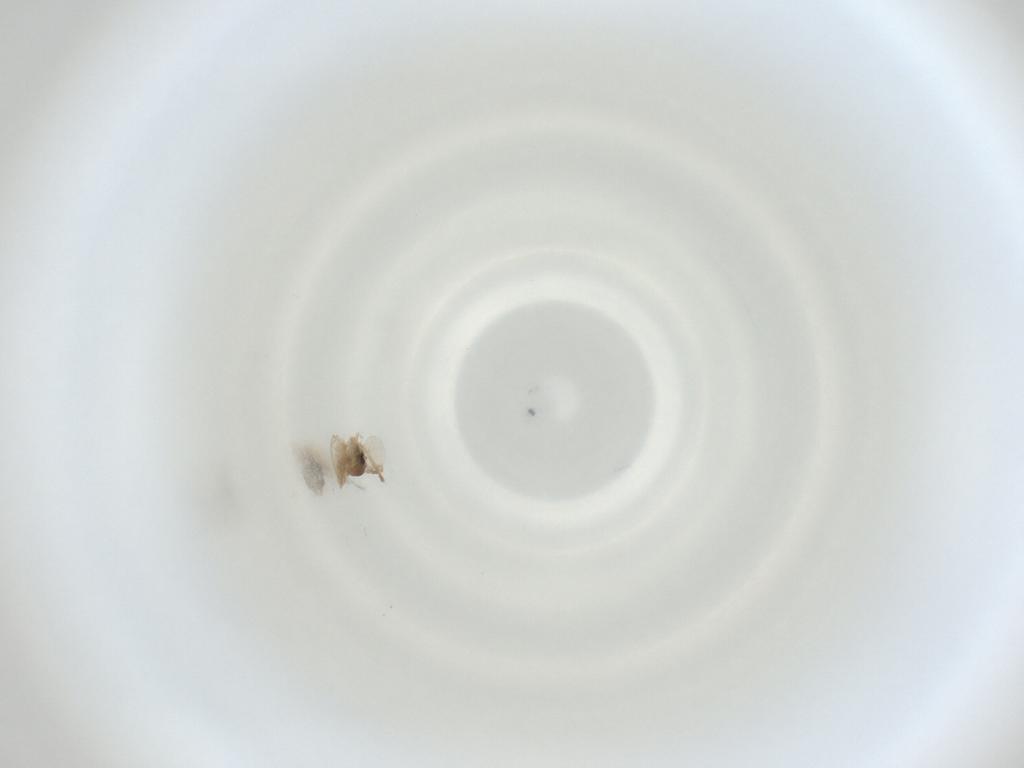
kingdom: Animalia
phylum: Arthropoda
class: Insecta
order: Diptera
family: Cecidomyiidae
